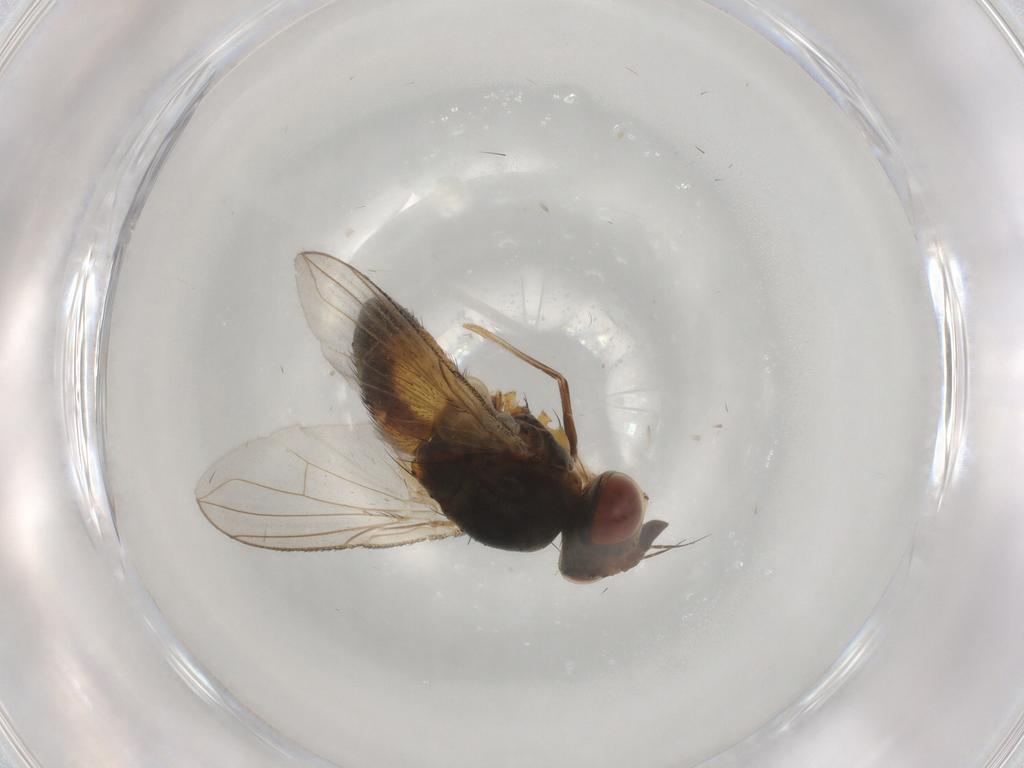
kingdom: Animalia
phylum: Arthropoda
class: Insecta
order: Diptera
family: Tachinidae
